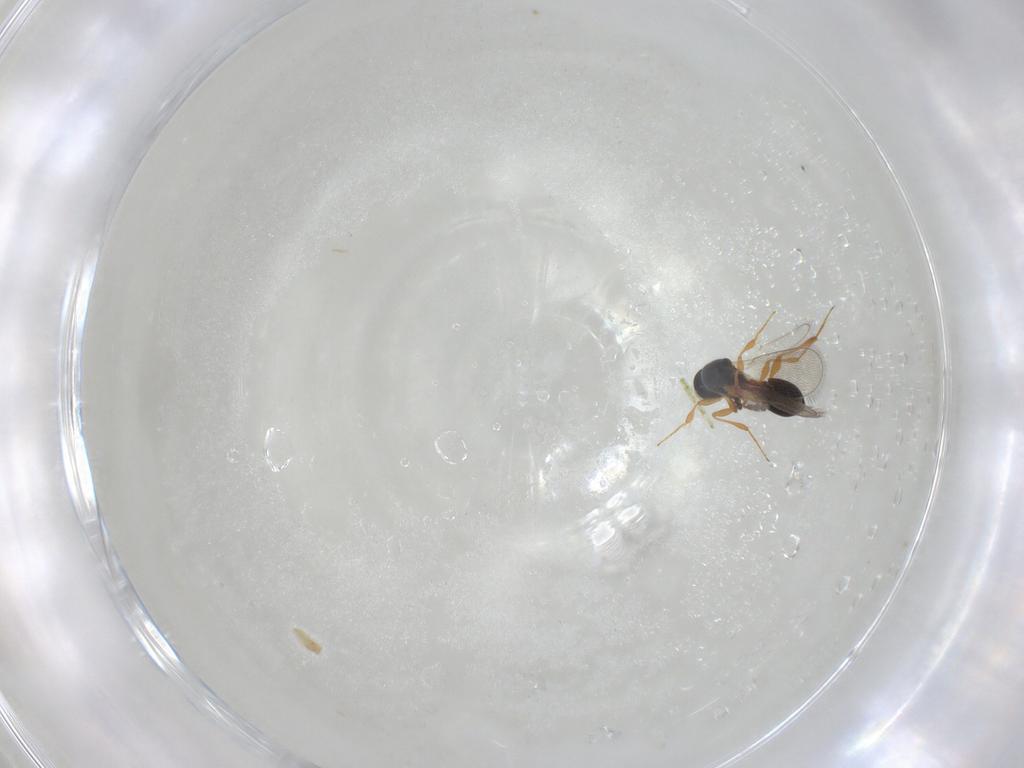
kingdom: Animalia
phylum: Arthropoda
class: Insecta
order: Hymenoptera
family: Platygastridae
